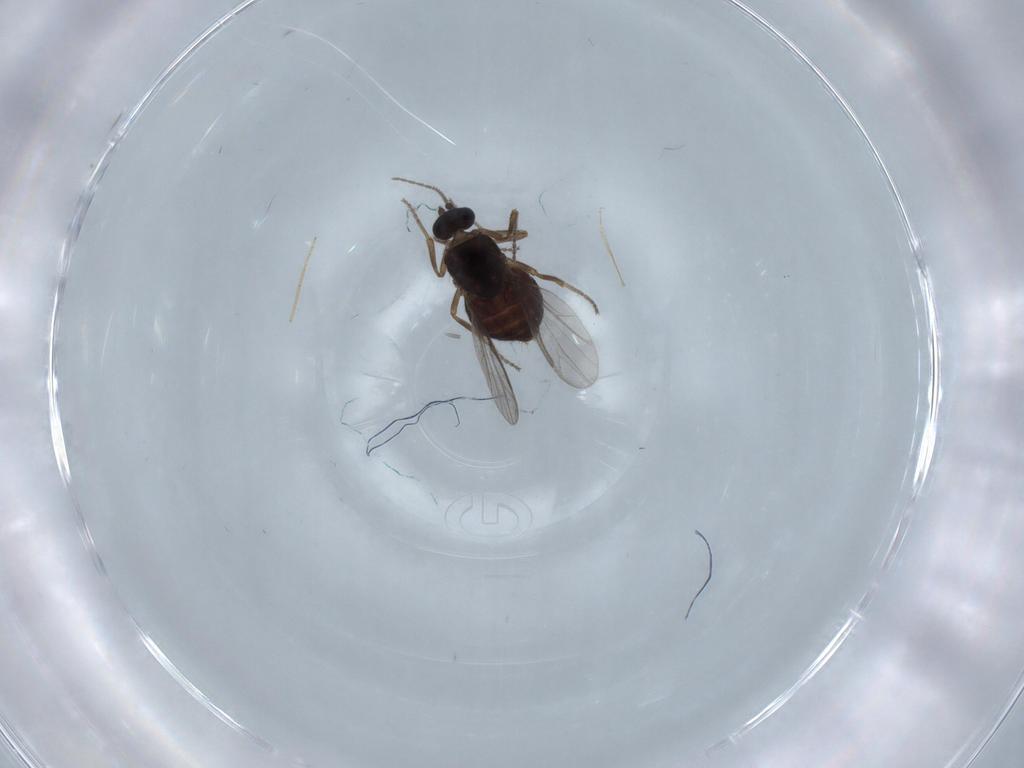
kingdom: Animalia
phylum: Arthropoda
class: Insecta
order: Diptera
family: Ceratopogonidae
